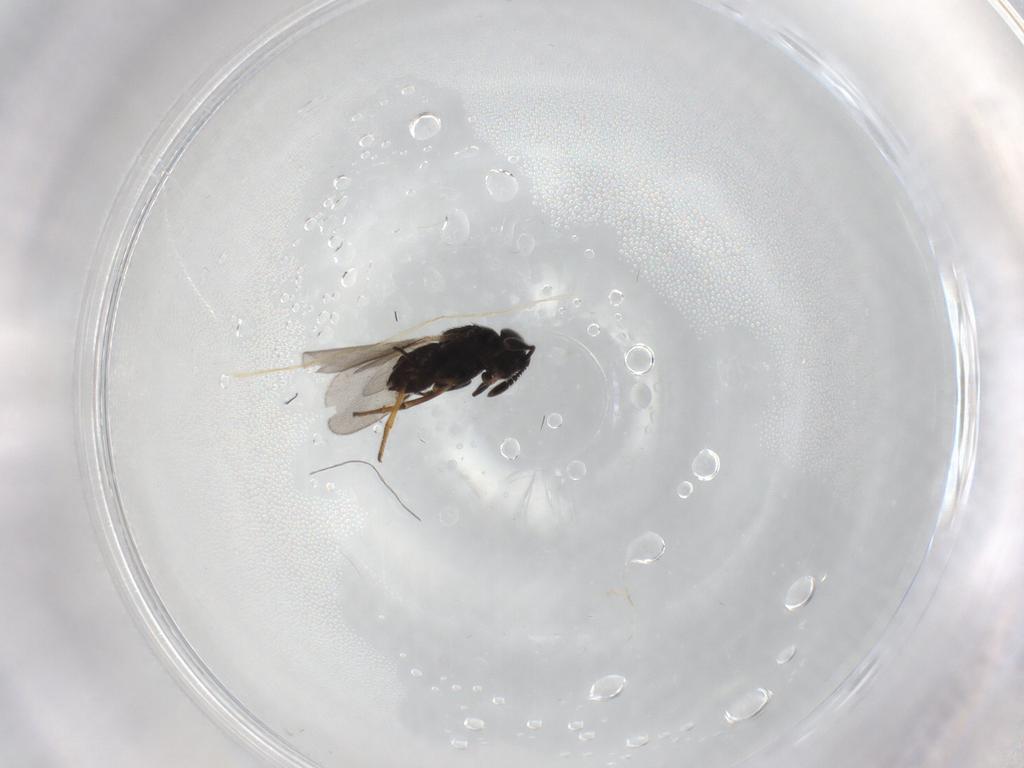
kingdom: Animalia
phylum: Arthropoda
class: Insecta
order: Hymenoptera
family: Encyrtidae
